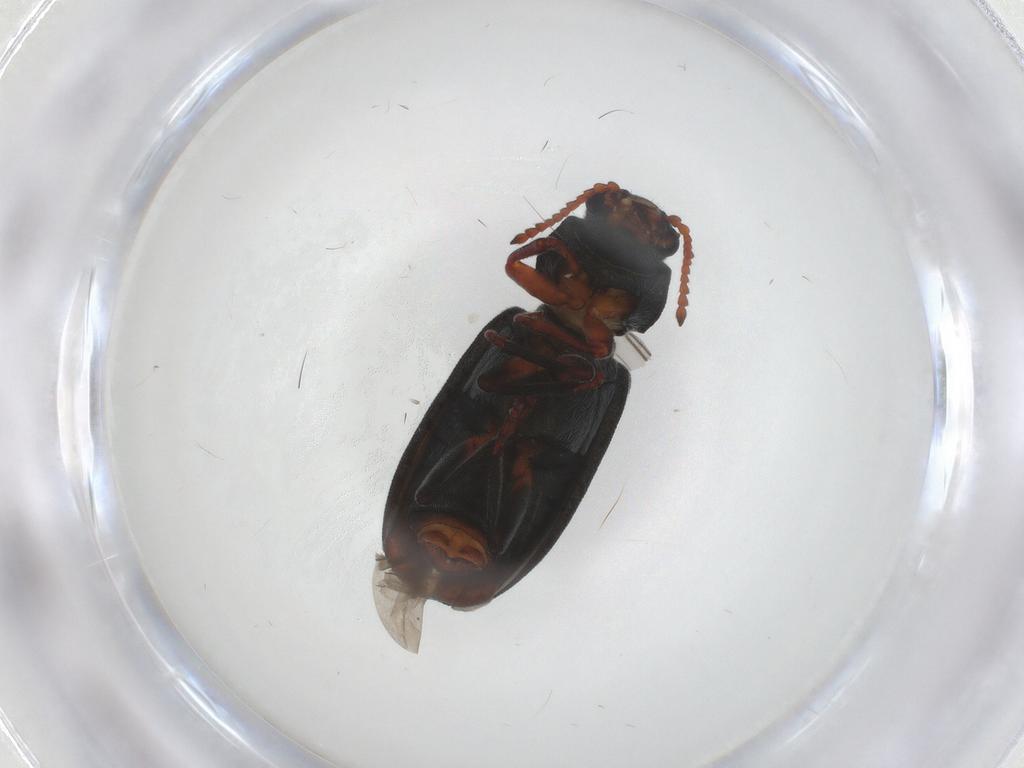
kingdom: Animalia
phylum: Arthropoda
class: Insecta
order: Coleoptera
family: Melyridae
